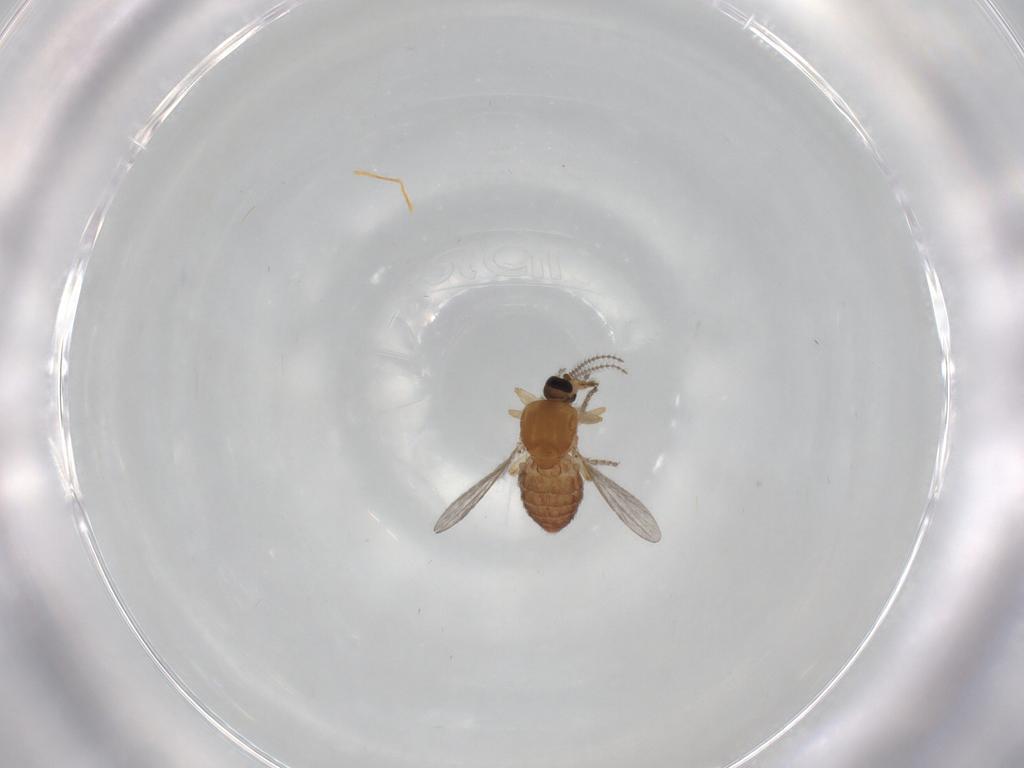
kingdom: Animalia
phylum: Arthropoda
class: Insecta
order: Diptera
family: Ceratopogonidae
